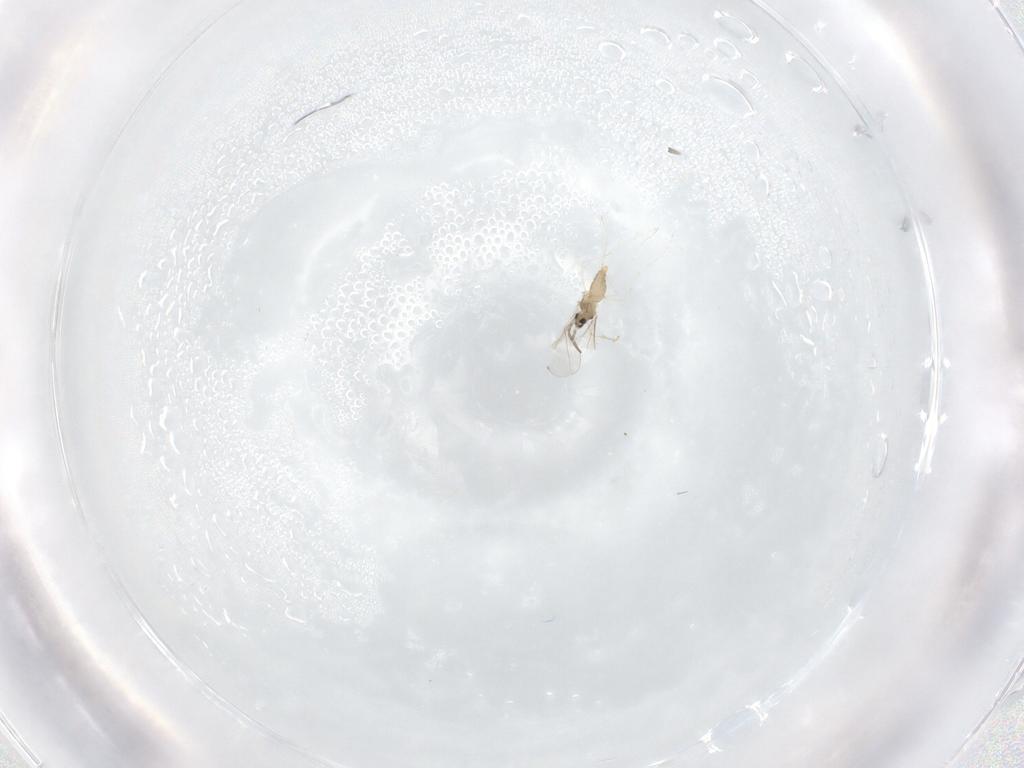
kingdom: Animalia
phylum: Arthropoda
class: Insecta
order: Diptera
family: Cecidomyiidae
